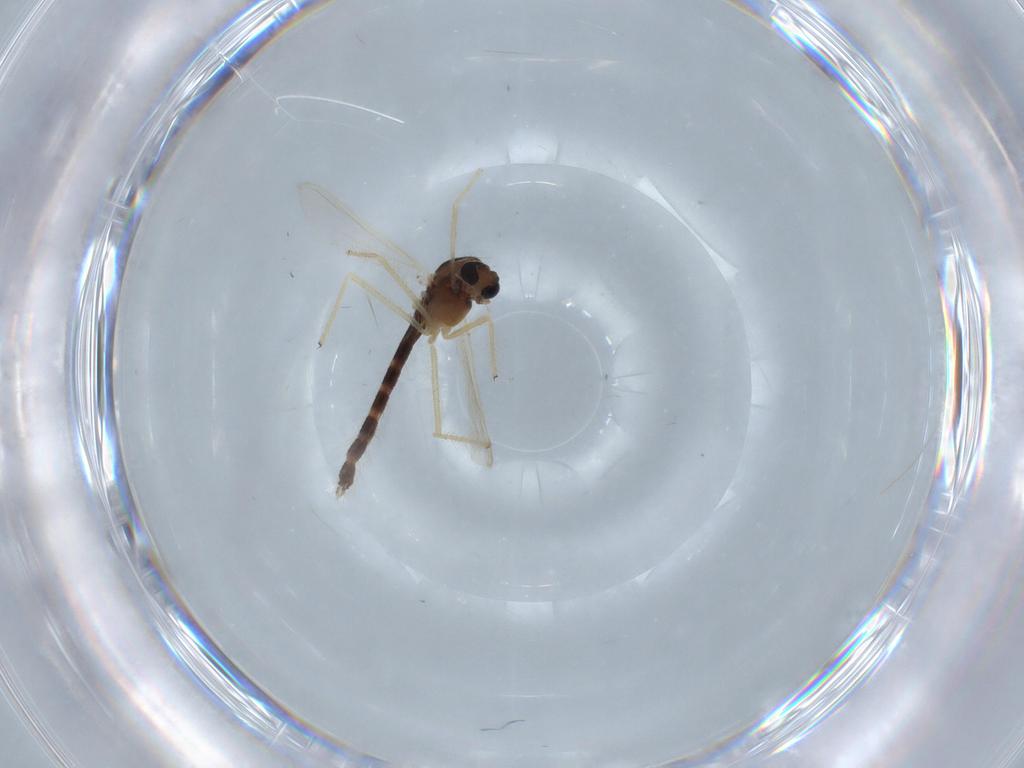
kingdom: Animalia
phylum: Arthropoda
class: Insecta
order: Diptera
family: Chironomidae
